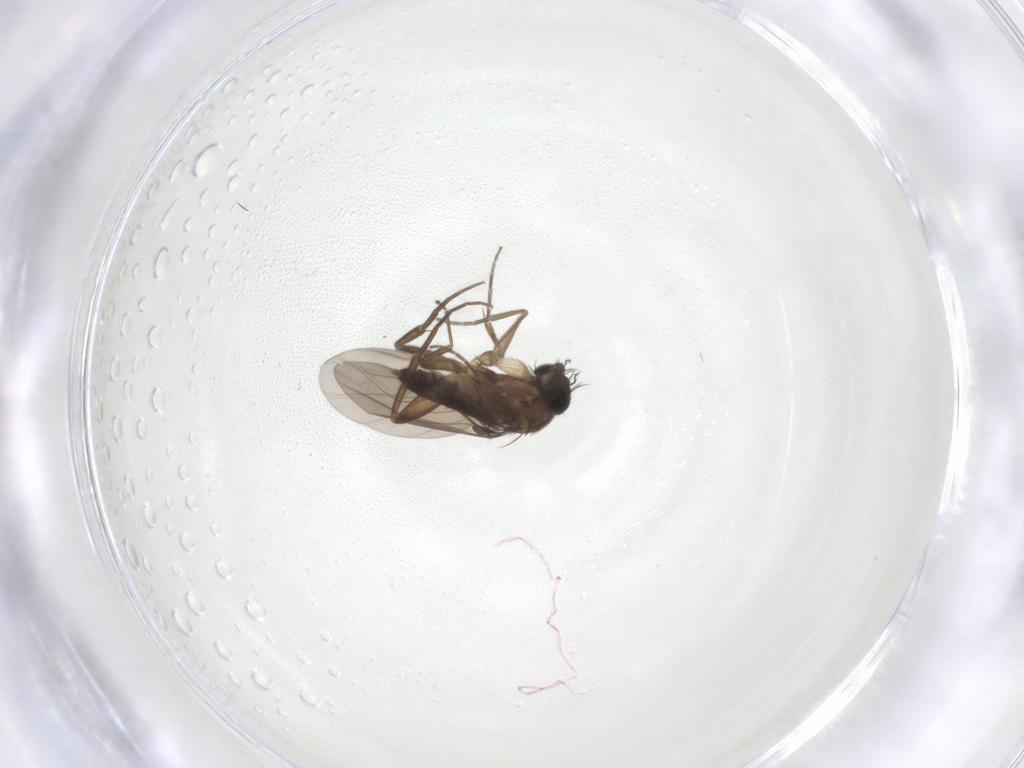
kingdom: Animalia
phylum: Arthropoda
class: Insecta
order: Diptera
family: Phoridae
